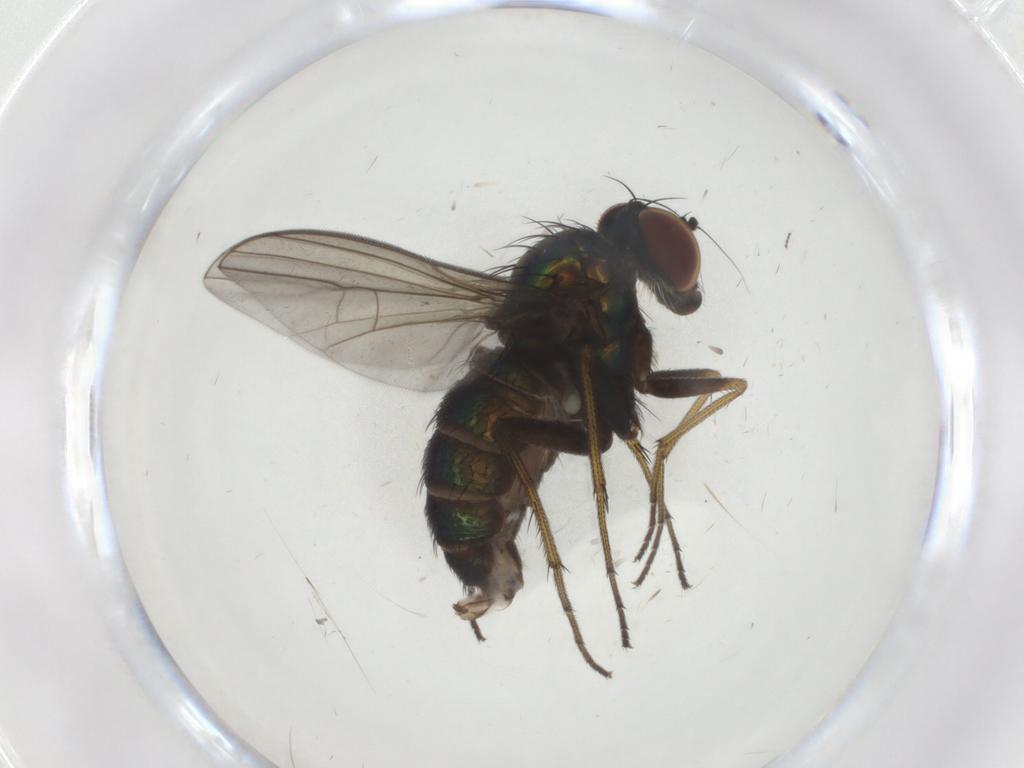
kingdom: Animalia
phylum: Arthropoda
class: Insecta
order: Diptera
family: Dolichopodidae
